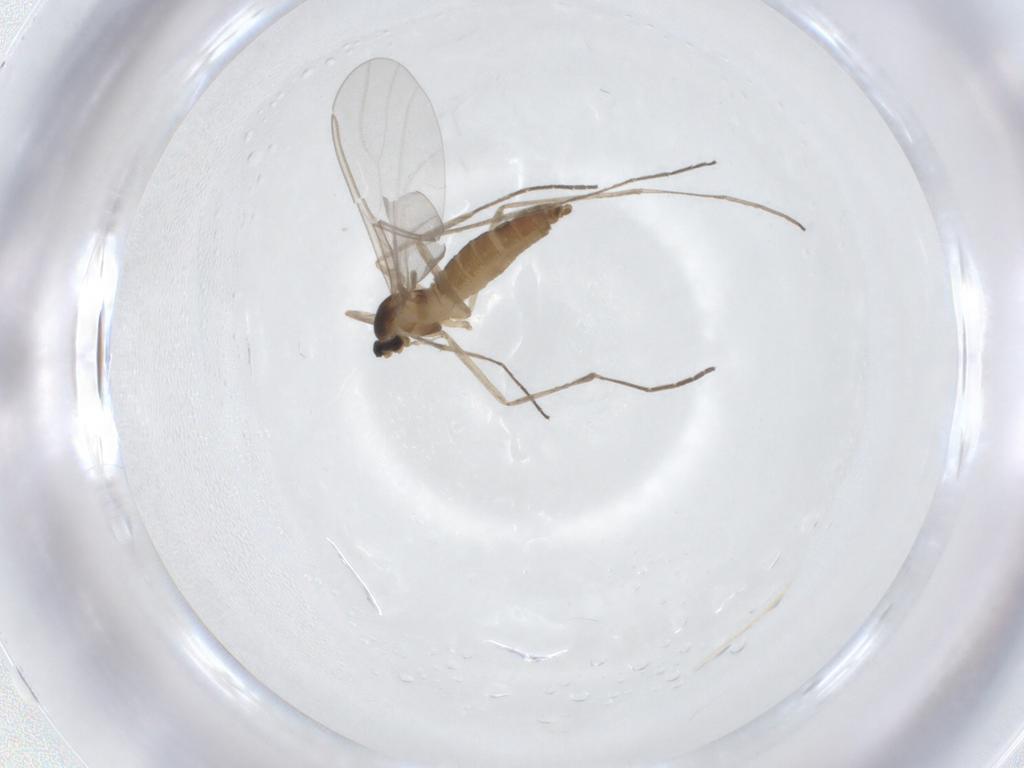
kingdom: Animalia
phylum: Arthropoda
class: Insecta
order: Diptera
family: Cecidomyiidae
